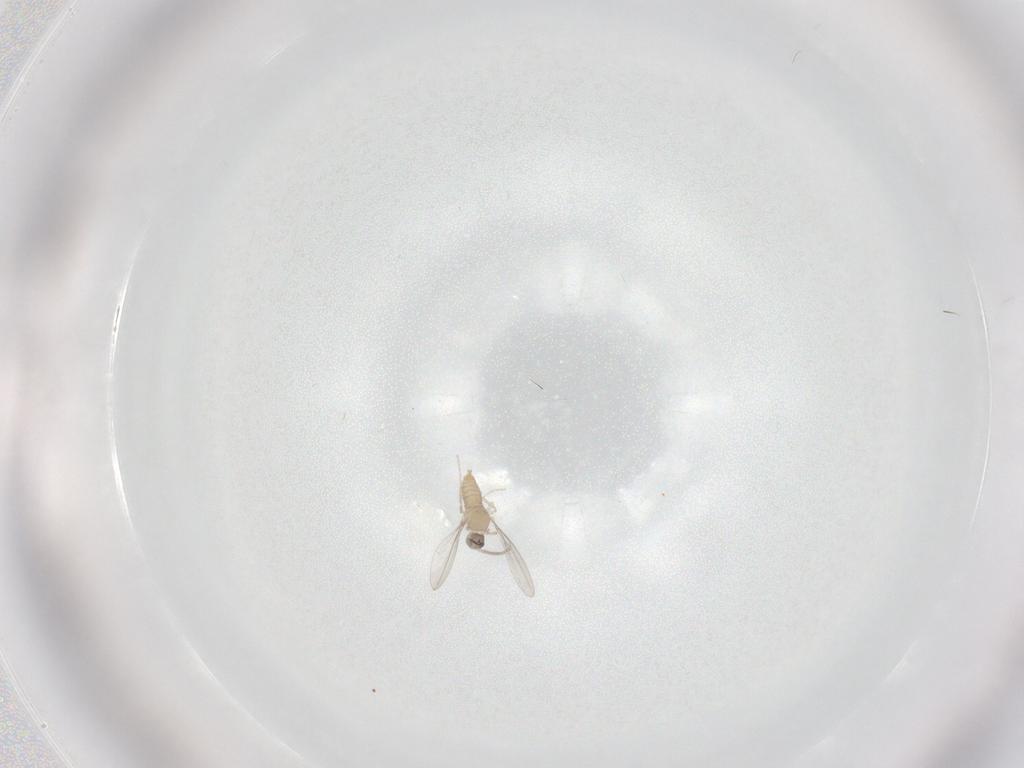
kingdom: Animalia
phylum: Arthropoda
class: Insecta
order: Diptera
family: Cecidomyiidae
